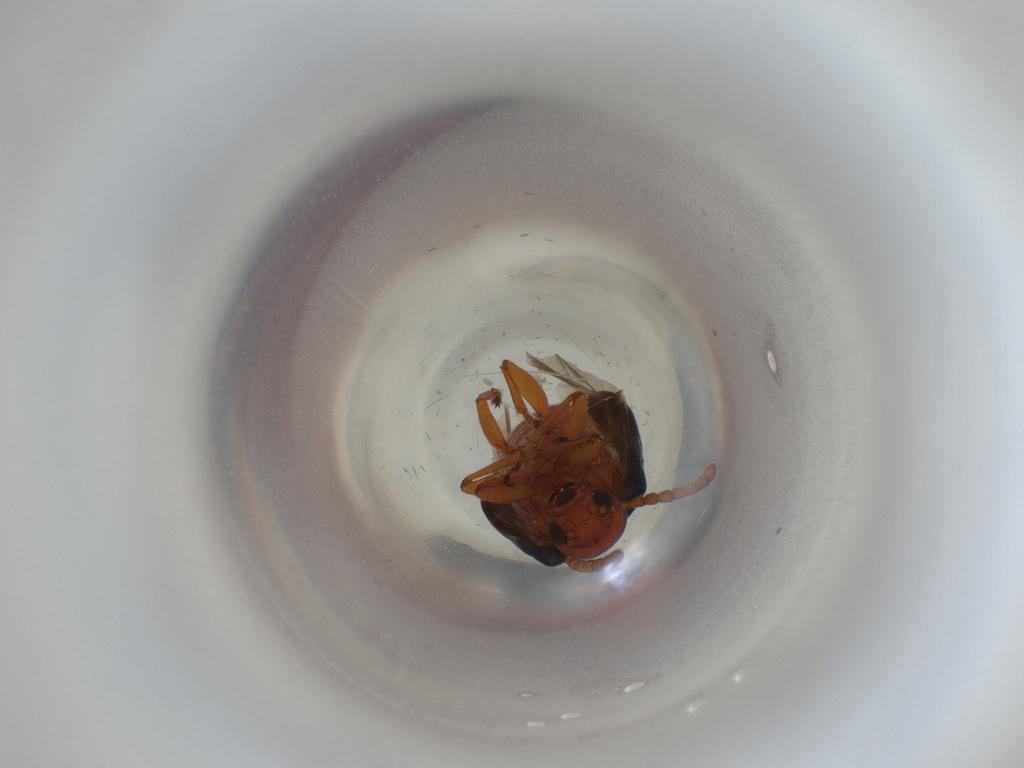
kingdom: Animalia
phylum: Arthropoda
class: Insecta
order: Coleoptera
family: Chrysomelidae
